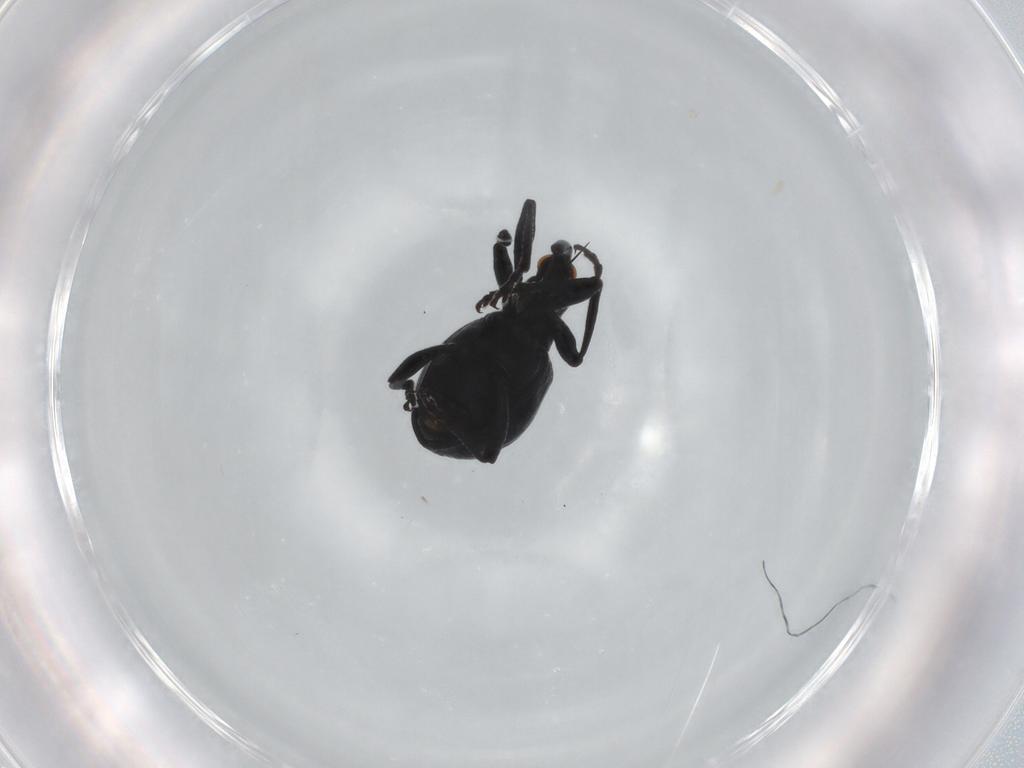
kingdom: Animalia
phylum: Arthropoda
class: Insecta
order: Coleoptera
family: Apionidae
